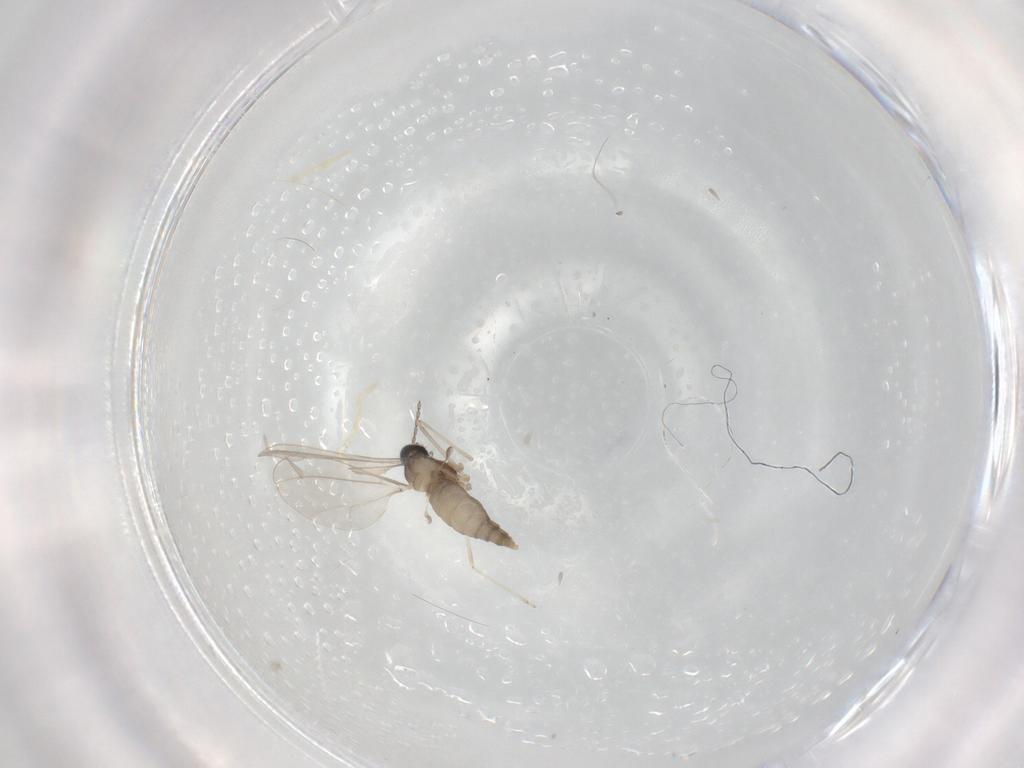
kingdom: Animalia
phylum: Arthropoda
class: Insecta
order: Diptera
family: Cecidomyiidae
